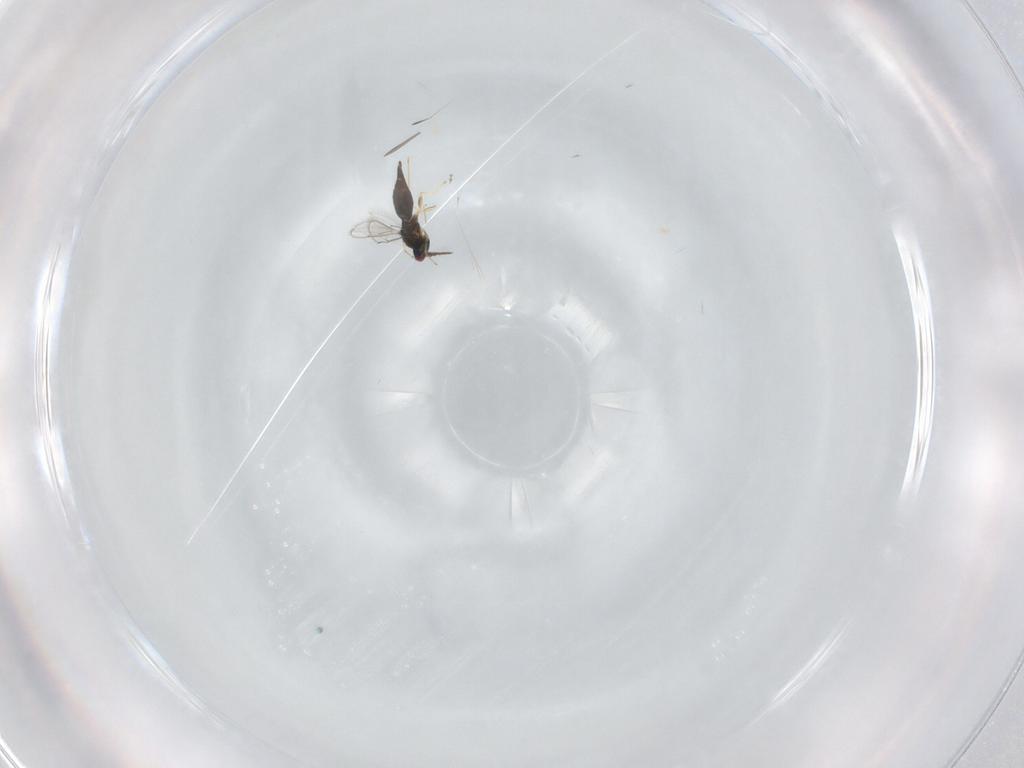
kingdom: Animalia
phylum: Arthropoda
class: Insecta
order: Hymenoptera
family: Eulophidae
